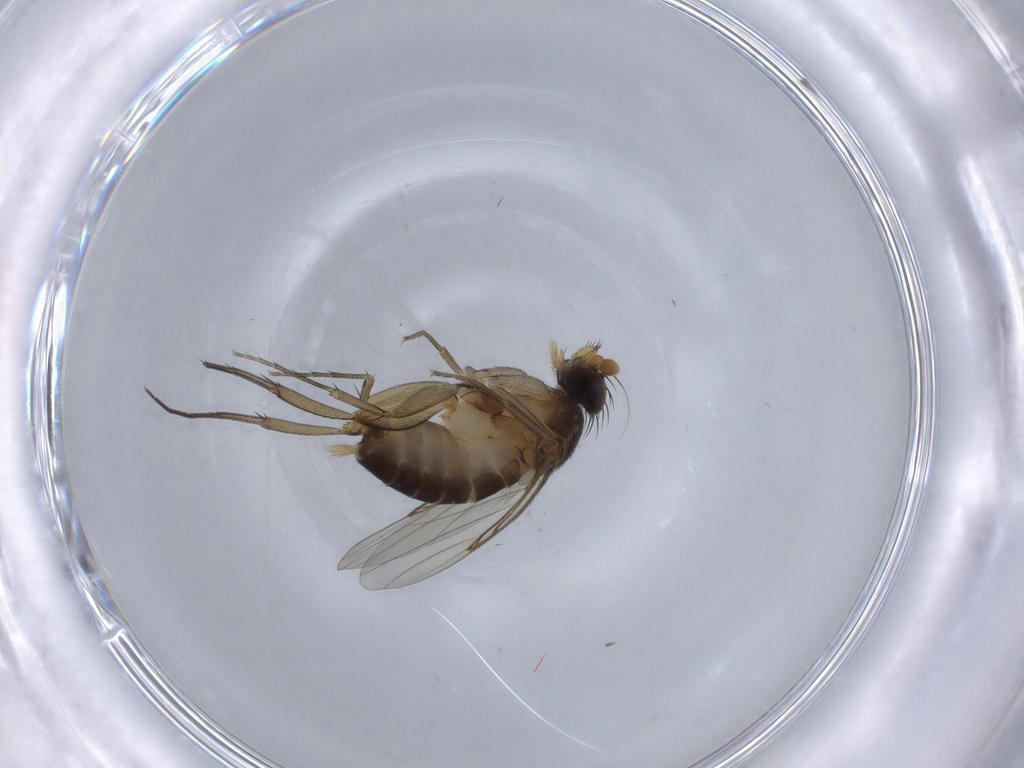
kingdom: Animalia
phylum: Arthropoda
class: Insecta
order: Diptera
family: Phoridae
